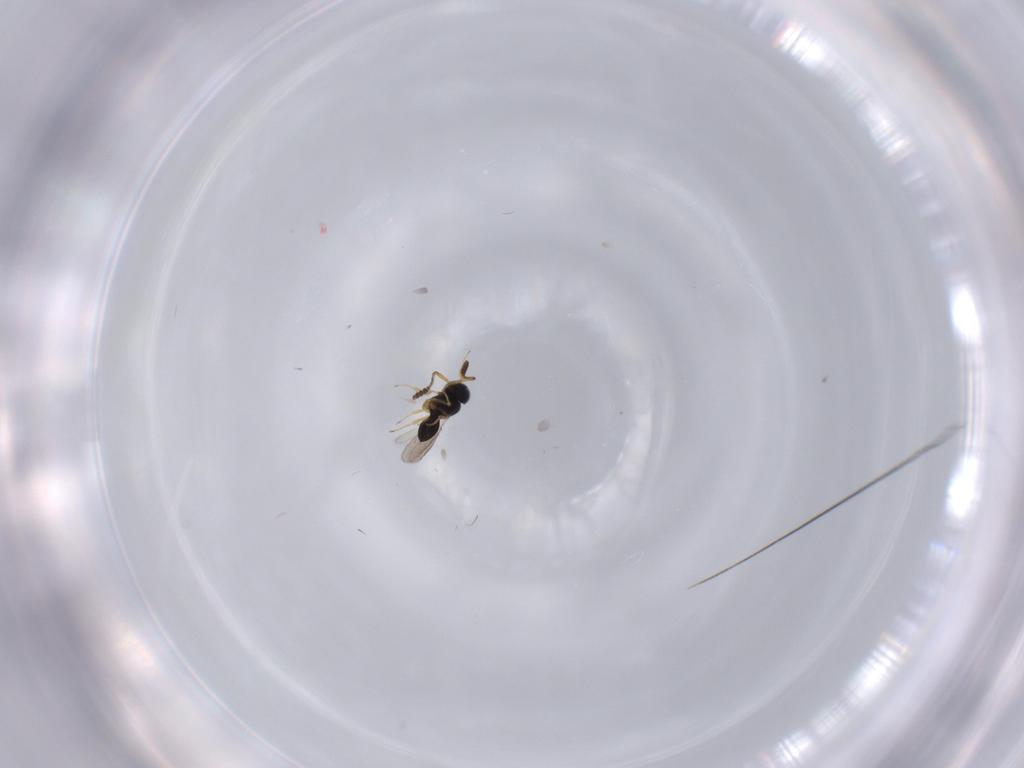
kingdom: Animalia
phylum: Arthropoda
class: Insecta
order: Hymenoptera
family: Scelionidae
